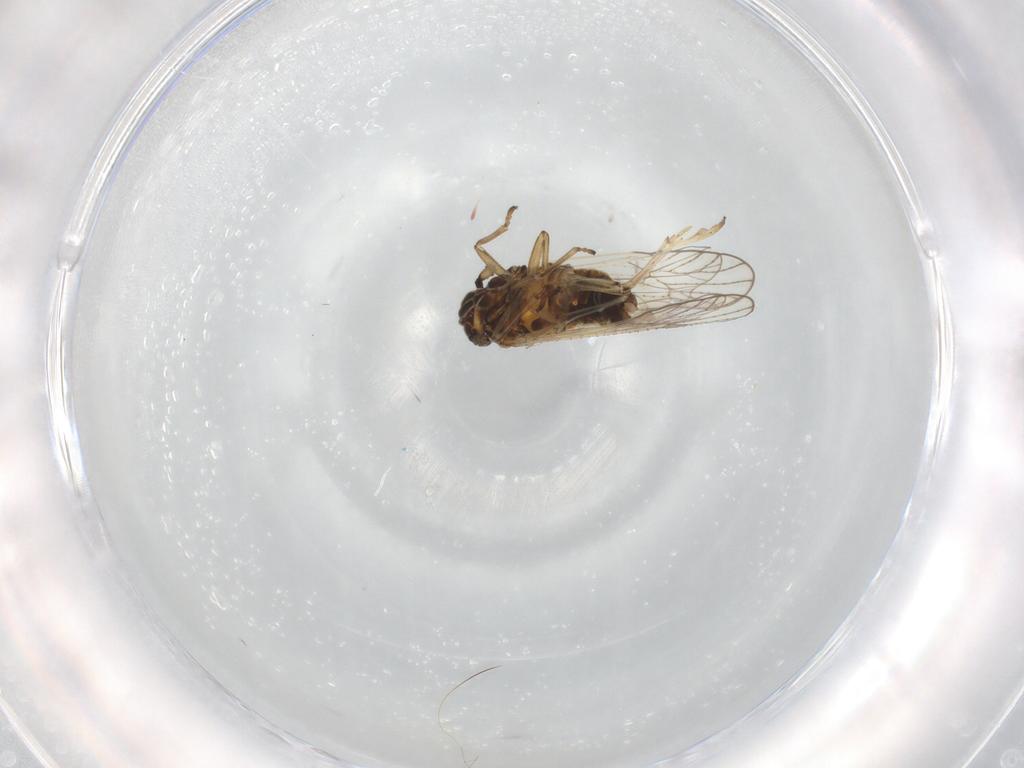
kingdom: Animalia
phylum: Arthropoda
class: Insecta
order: Hemiptera
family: Delphacidae
